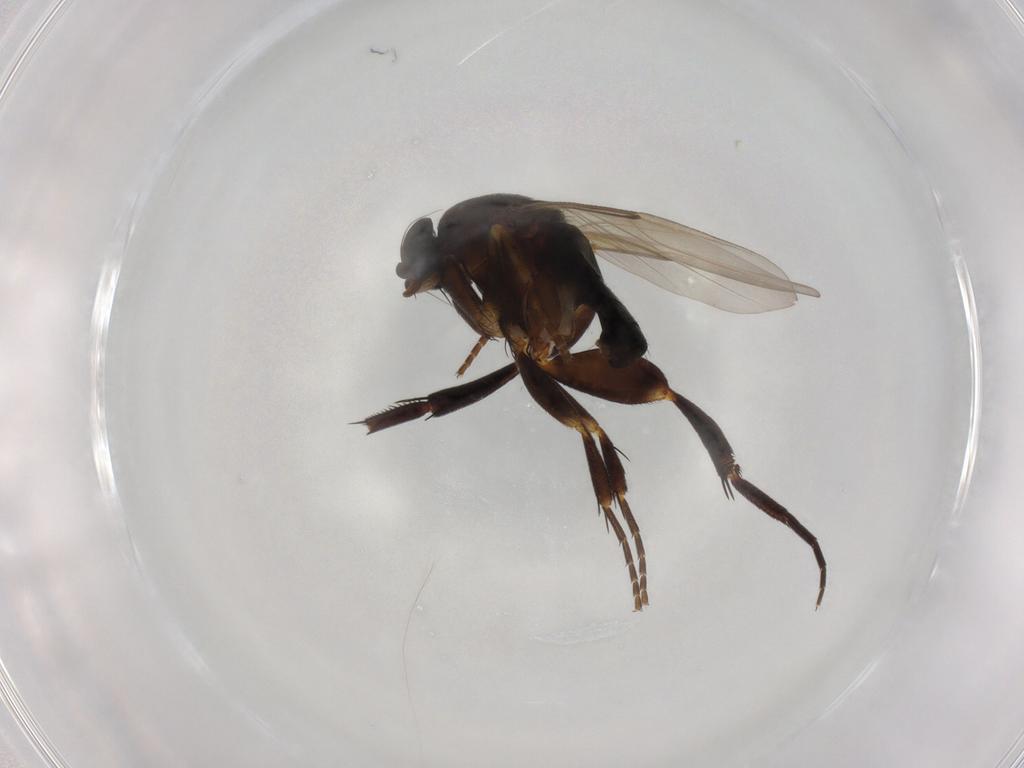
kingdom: Animalia
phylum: Arthropoda
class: Insecta
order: Diptera
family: Phoridae
